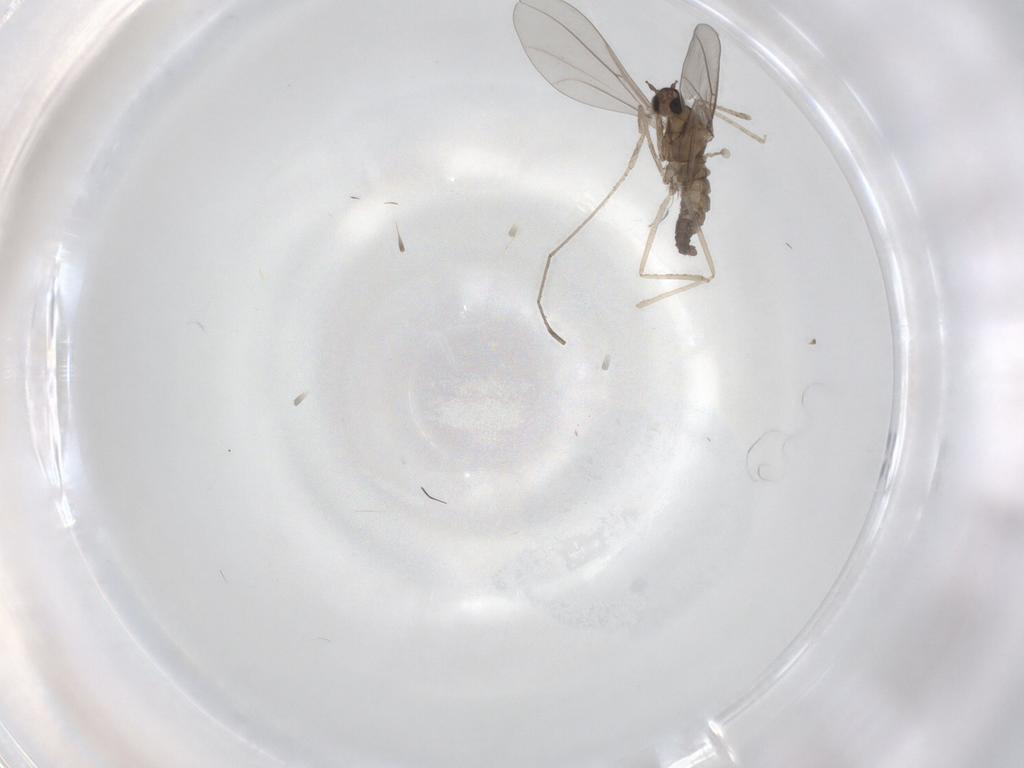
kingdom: Animalia
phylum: Arthropoda
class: Insecta
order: Diptera
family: Cecidomyiidae
